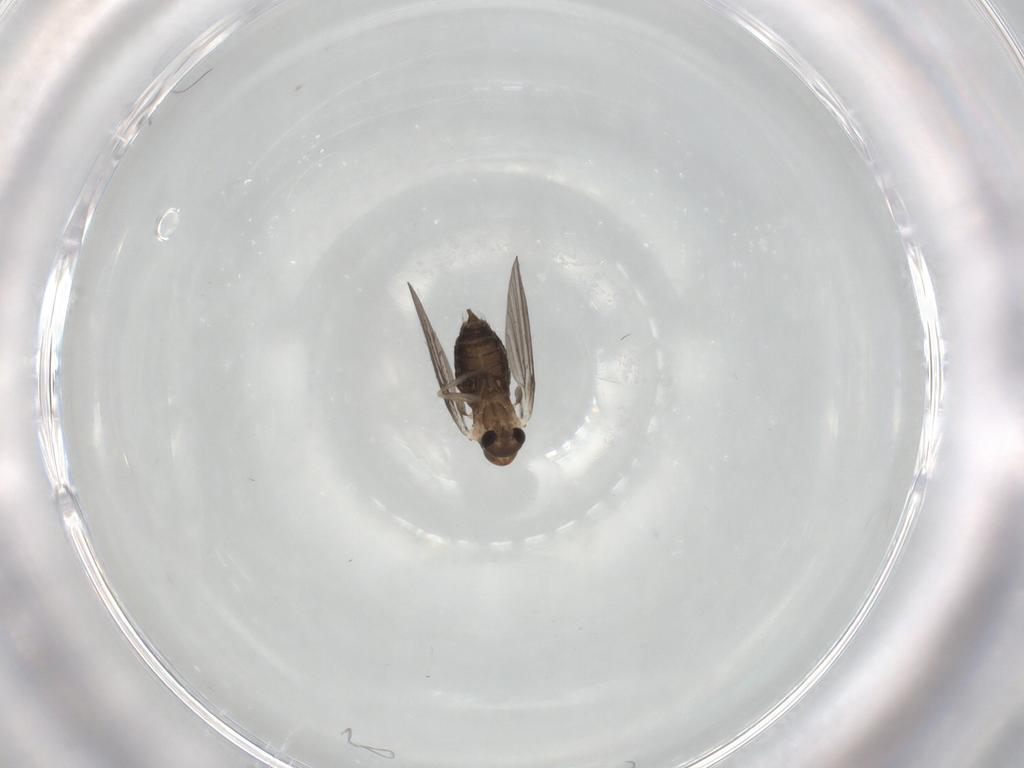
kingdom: Animalia
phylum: Arthropoda
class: Insecta
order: Diptera
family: Psychodidae
